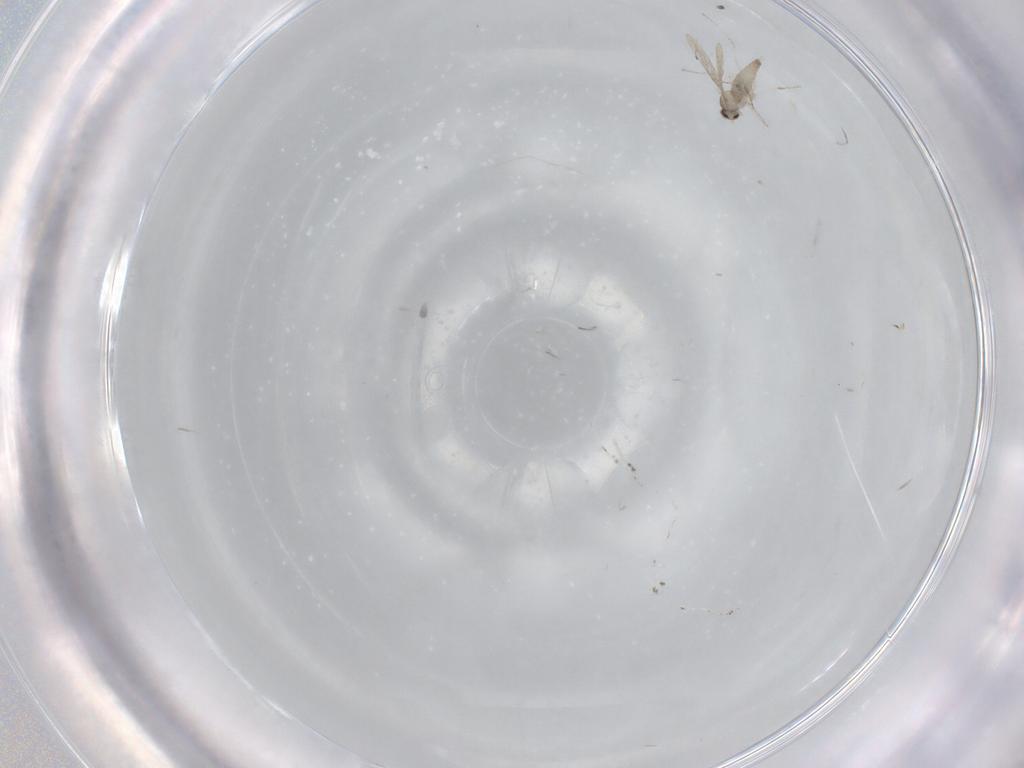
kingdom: Animalia
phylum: Arthropoda
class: Insecta
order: Diptera
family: Cecidomyiidae
